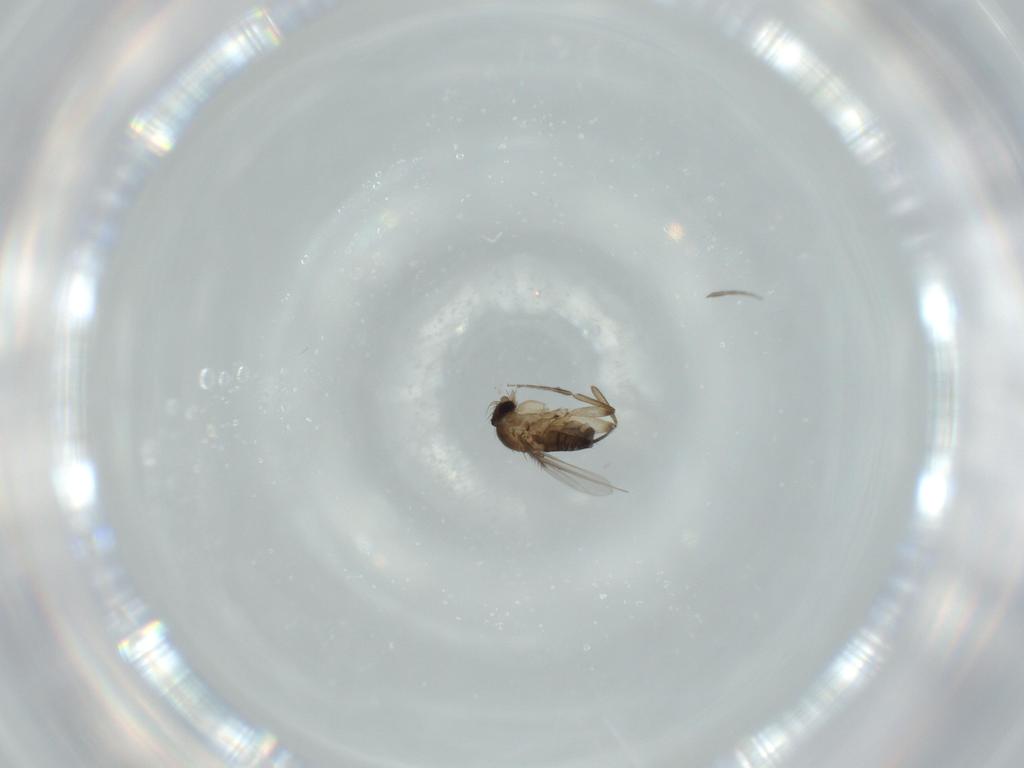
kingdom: Animalia
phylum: Arthropoda
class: Insecta
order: Diptera
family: Phoridae
